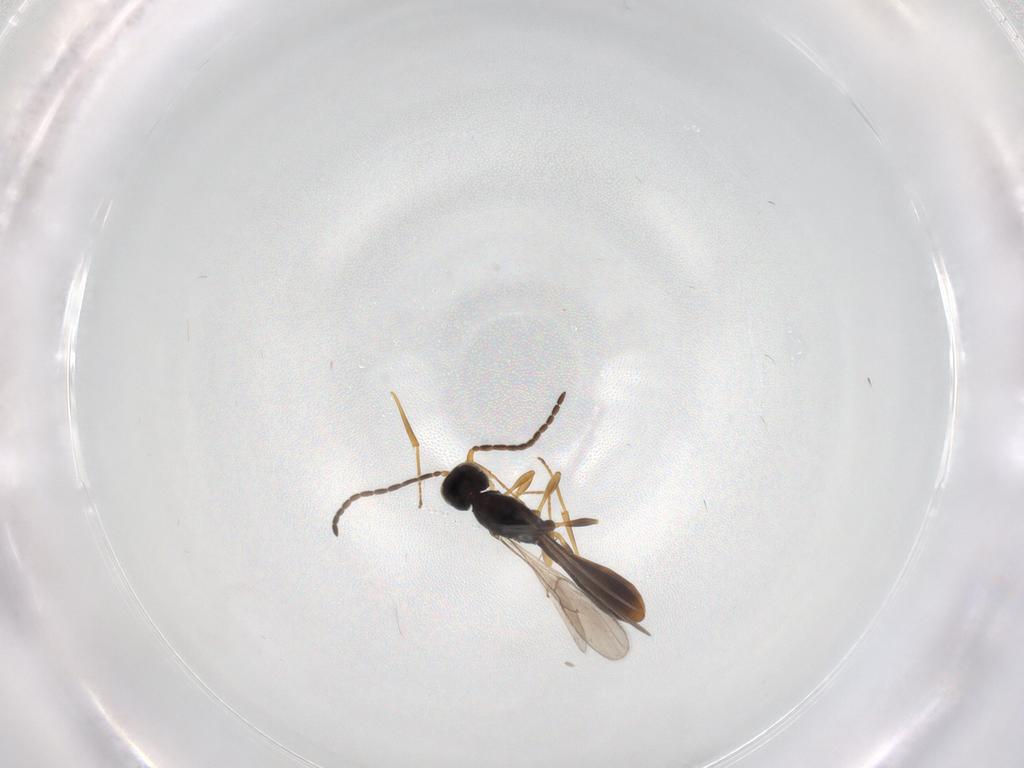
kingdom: Animalia
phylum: Arthropoda
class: Insecta
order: Hymenoptera
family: Scelionidae
